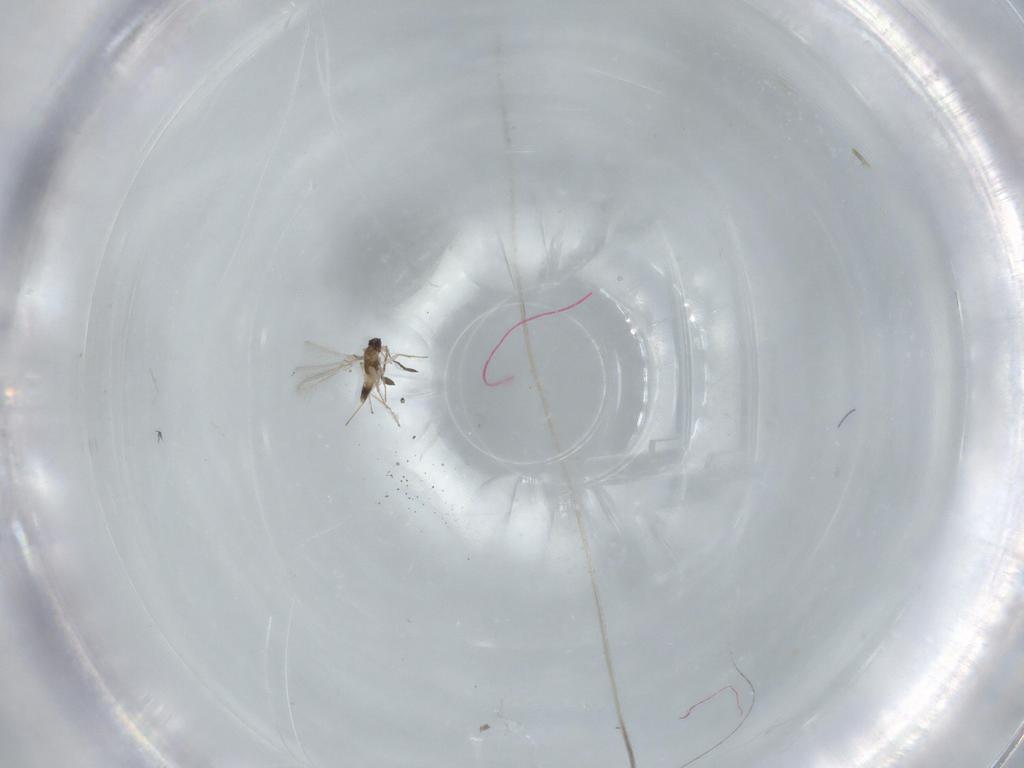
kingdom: Animalia
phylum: Arthropoda
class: Insecta
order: Hymenoptera
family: Mymaridae
